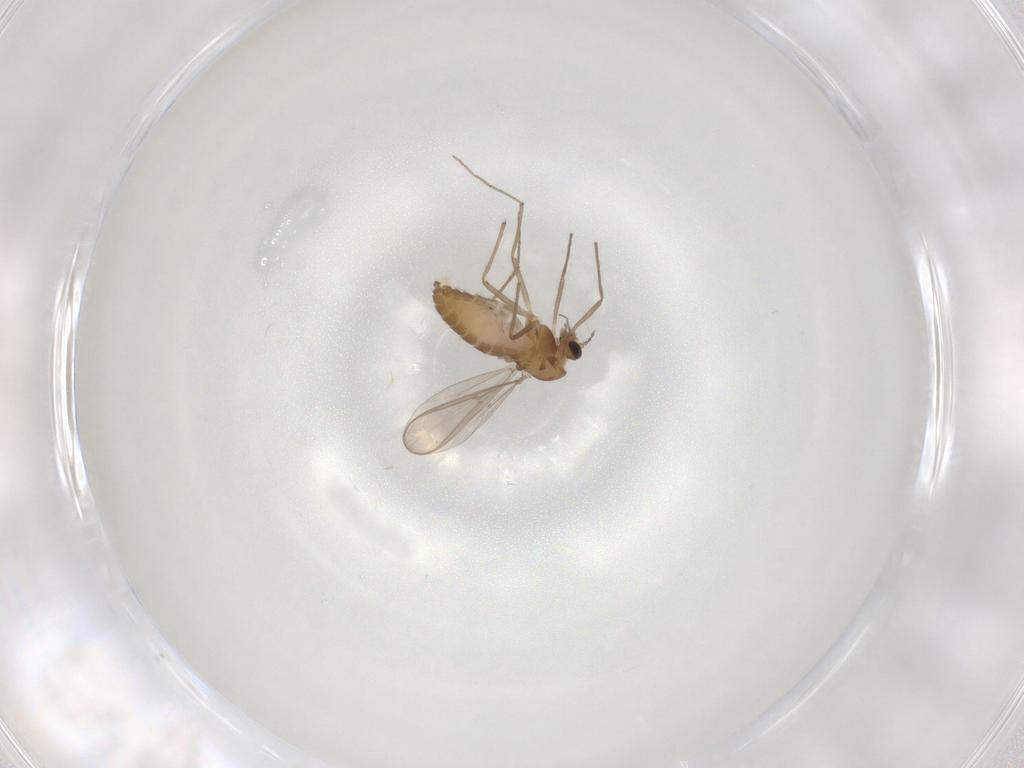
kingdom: Animalia
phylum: Arthropoda
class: Insecta
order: Diptera
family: Chironomidae
